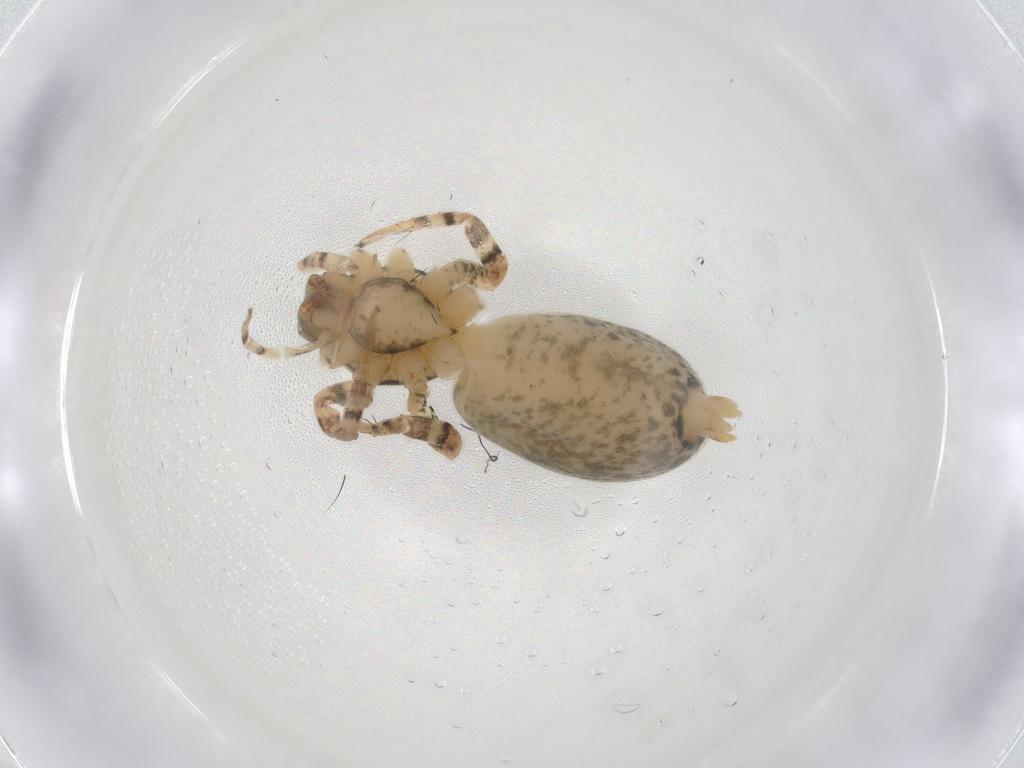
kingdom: Animalia
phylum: Arthropoda
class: Arachnida
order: Araneae
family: Anyphaenidae
